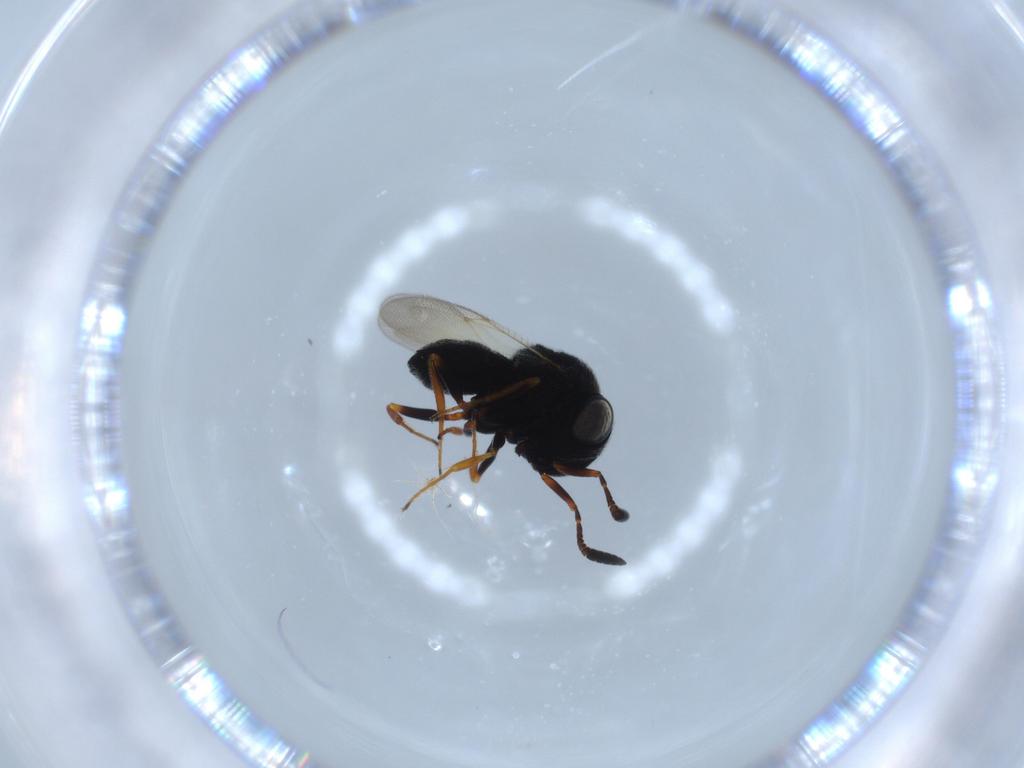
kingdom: Animalia
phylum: Arthropoda
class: Insecta
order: Hymenoptera
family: Scelionidae
